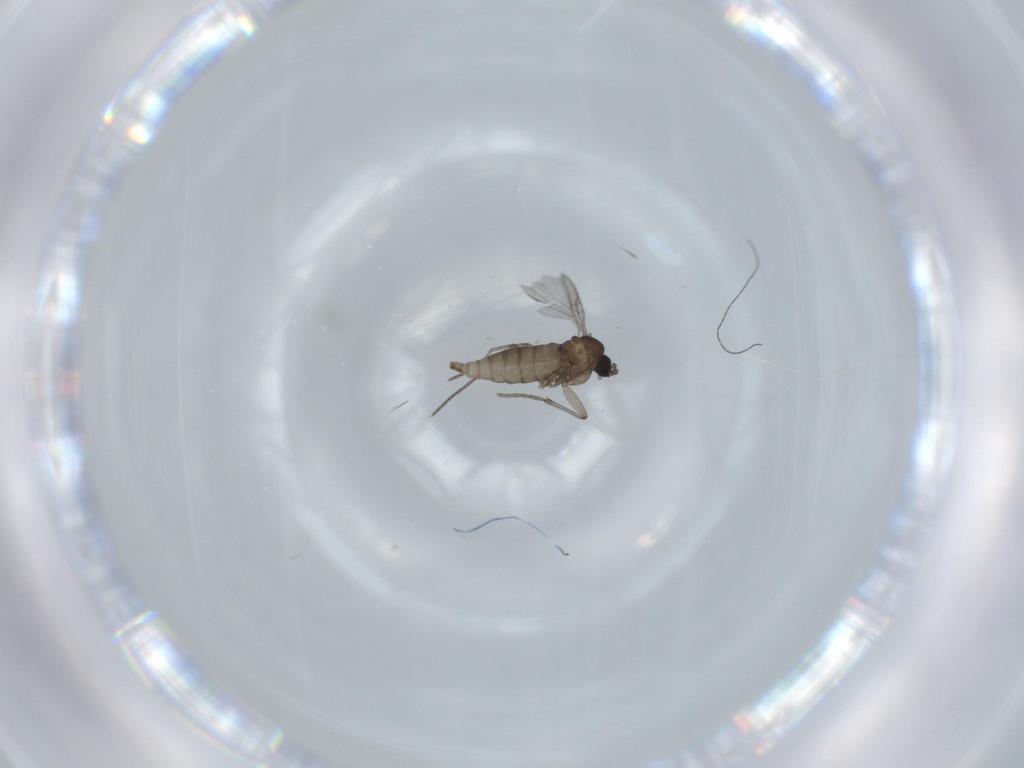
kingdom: Animalia
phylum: Arthropoda
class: Insecta
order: Diptera
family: Sciaridae
